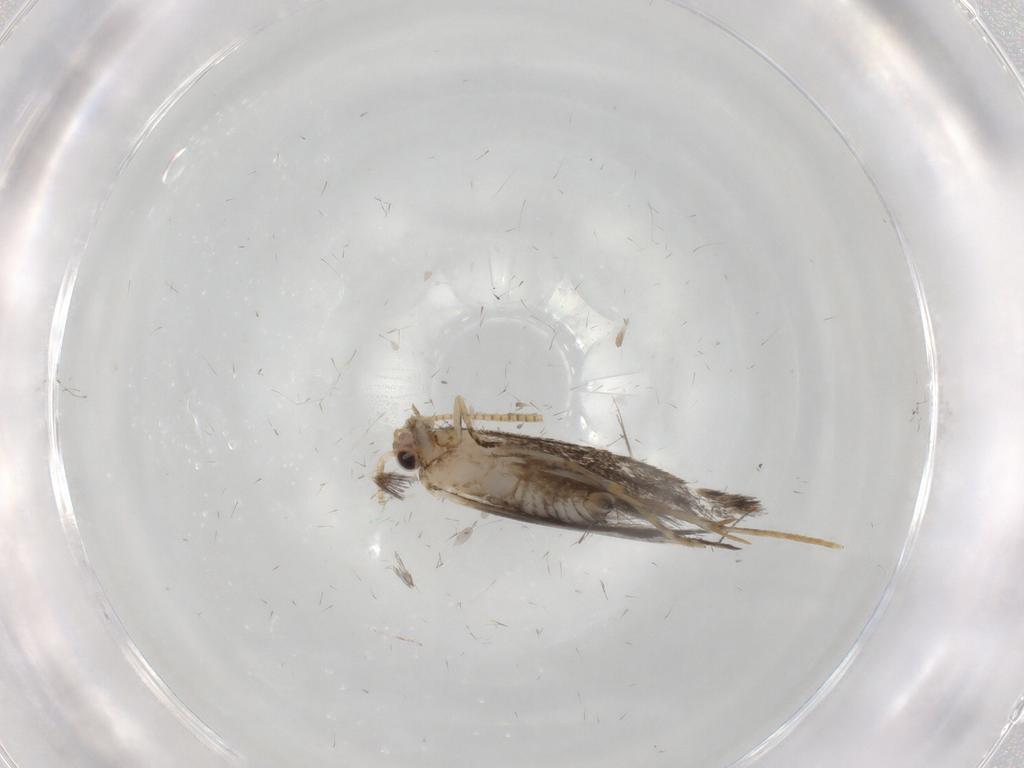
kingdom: Animalia
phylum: Arthropoda
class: Insecta
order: Lepidoptera
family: Tineidae
